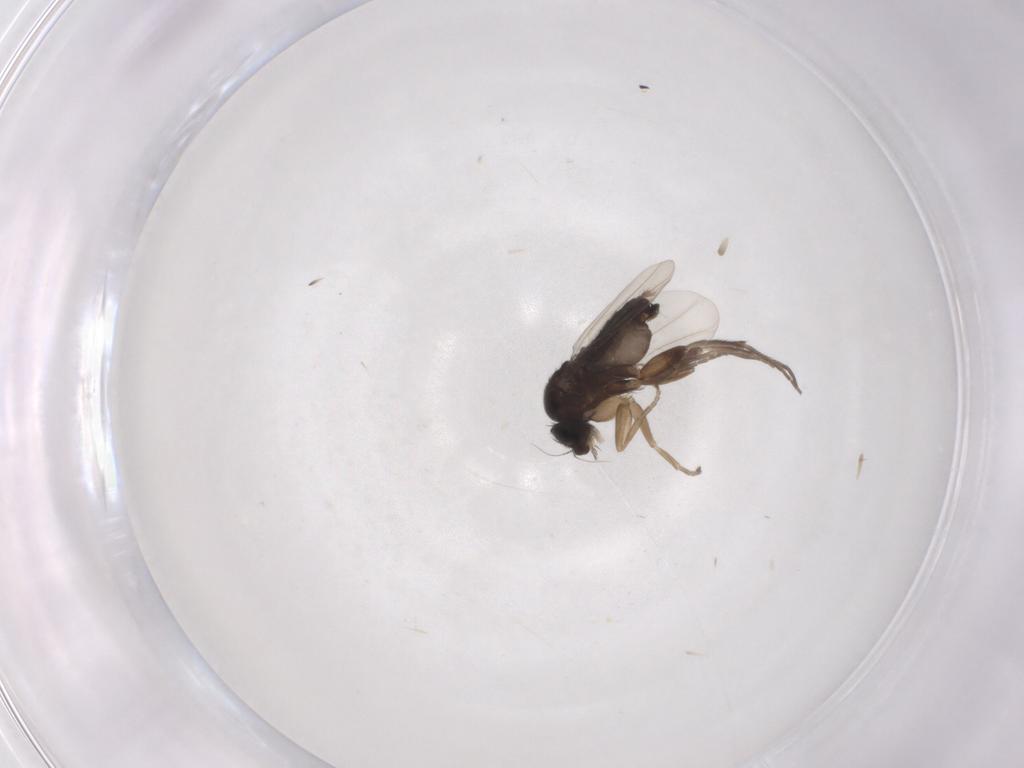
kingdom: Animalia
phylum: Arthropoda
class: Insecta
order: Diptera
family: Phoridae
